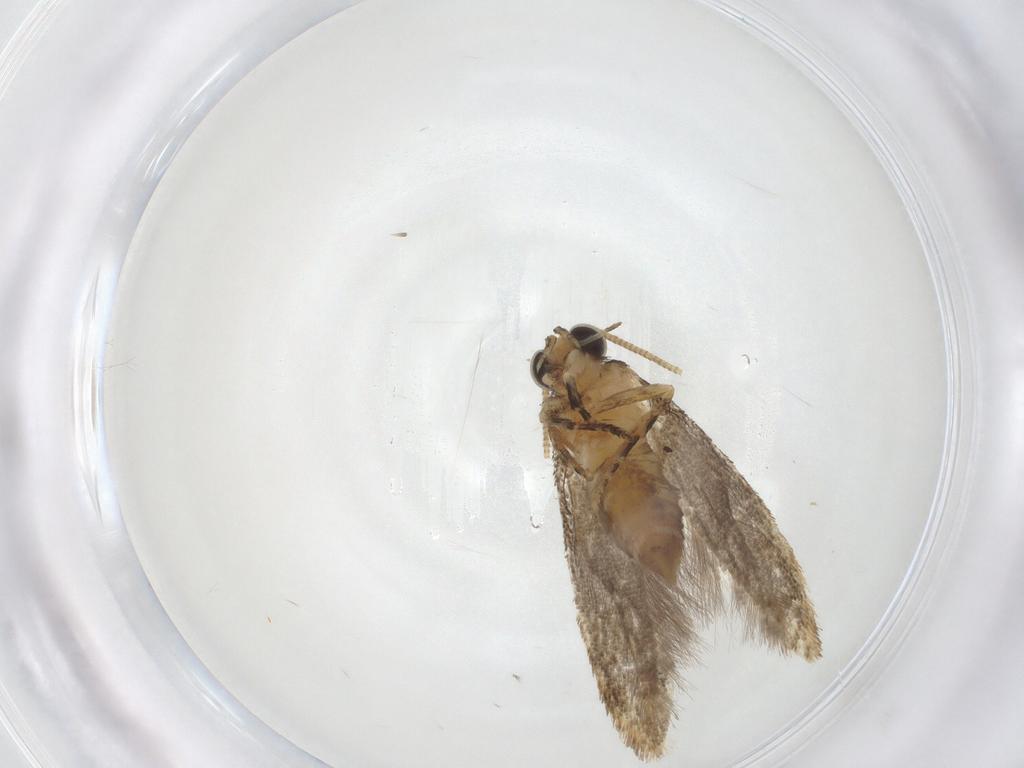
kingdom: Animalia
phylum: Arthropoda
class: Insecta
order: Lepidoptera
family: Tineidae
